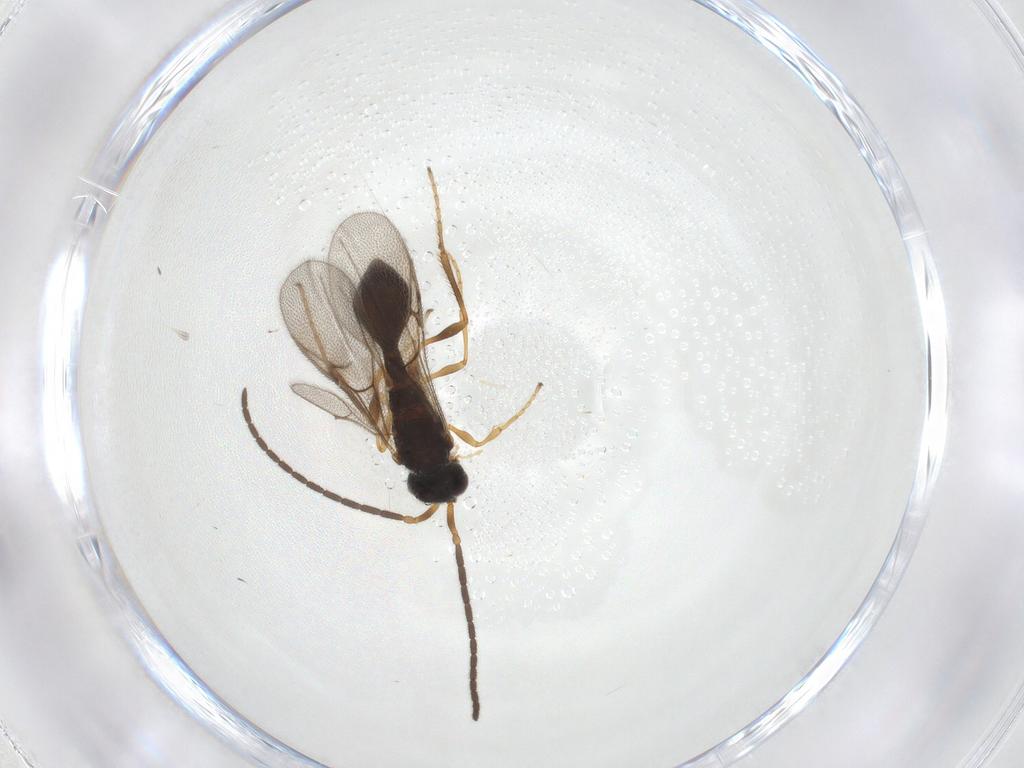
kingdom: Animalia
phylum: Arthropoda
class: Insecta
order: Hymenoptera
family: Diapriidae
